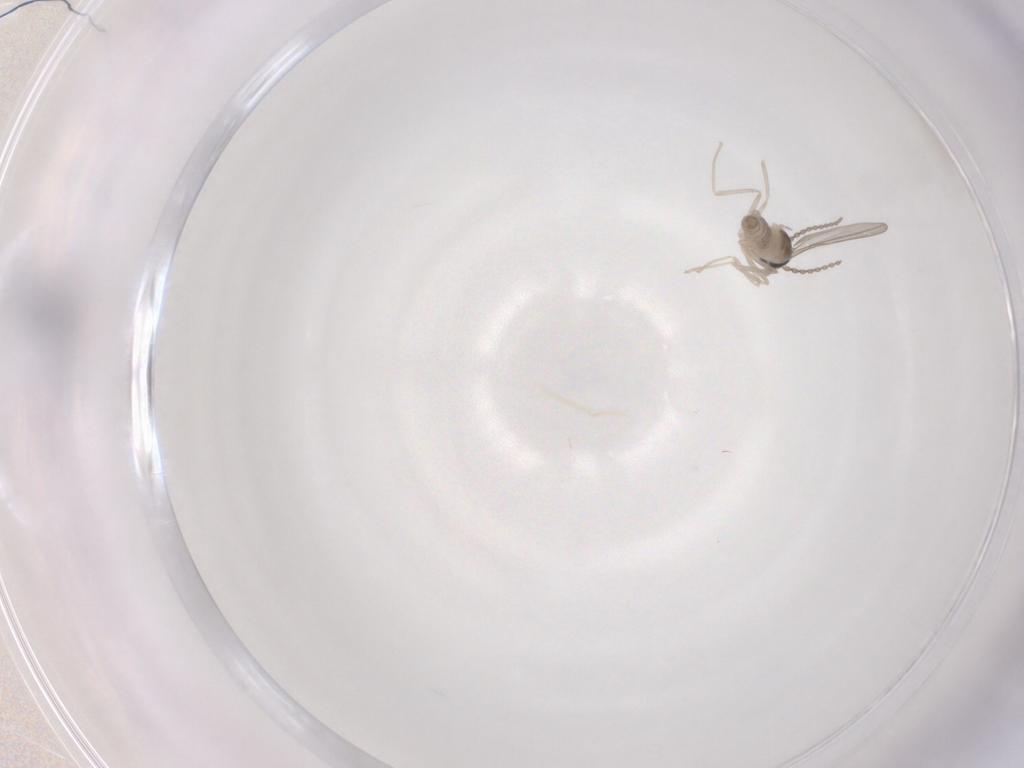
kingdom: Animalia
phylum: Arthropoda
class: Insecta
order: Diptera
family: Cecidomyiidae
